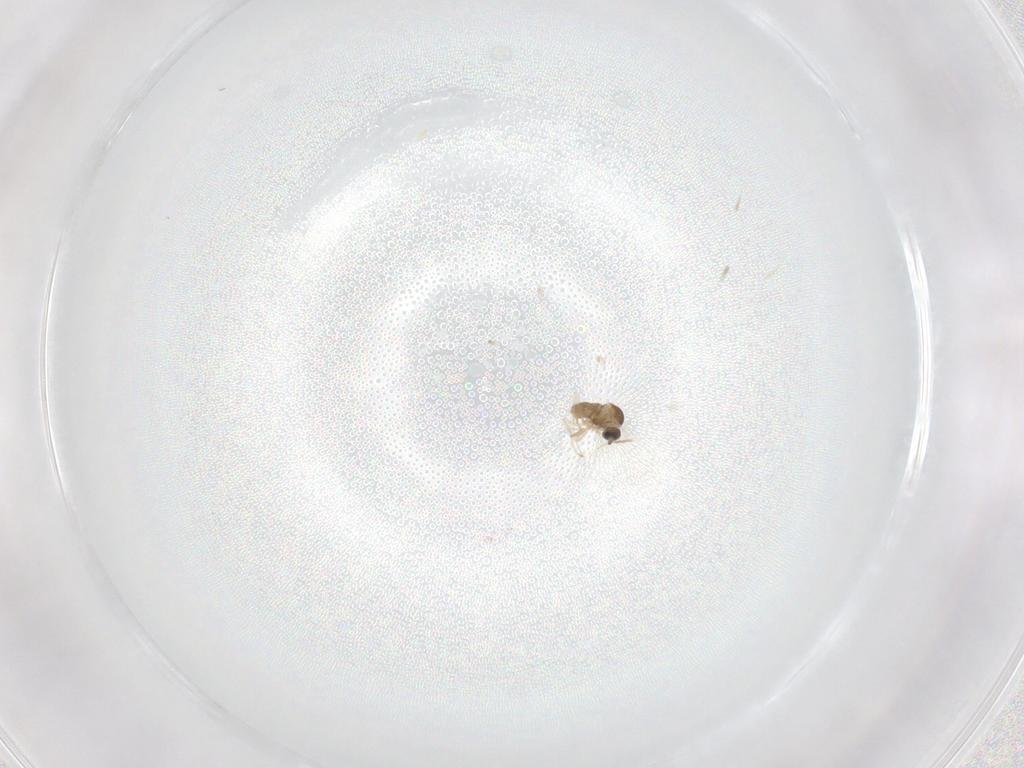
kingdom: Animalia
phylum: Arthropoda
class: Insecta
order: Diptera
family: Cecidomyiidae
